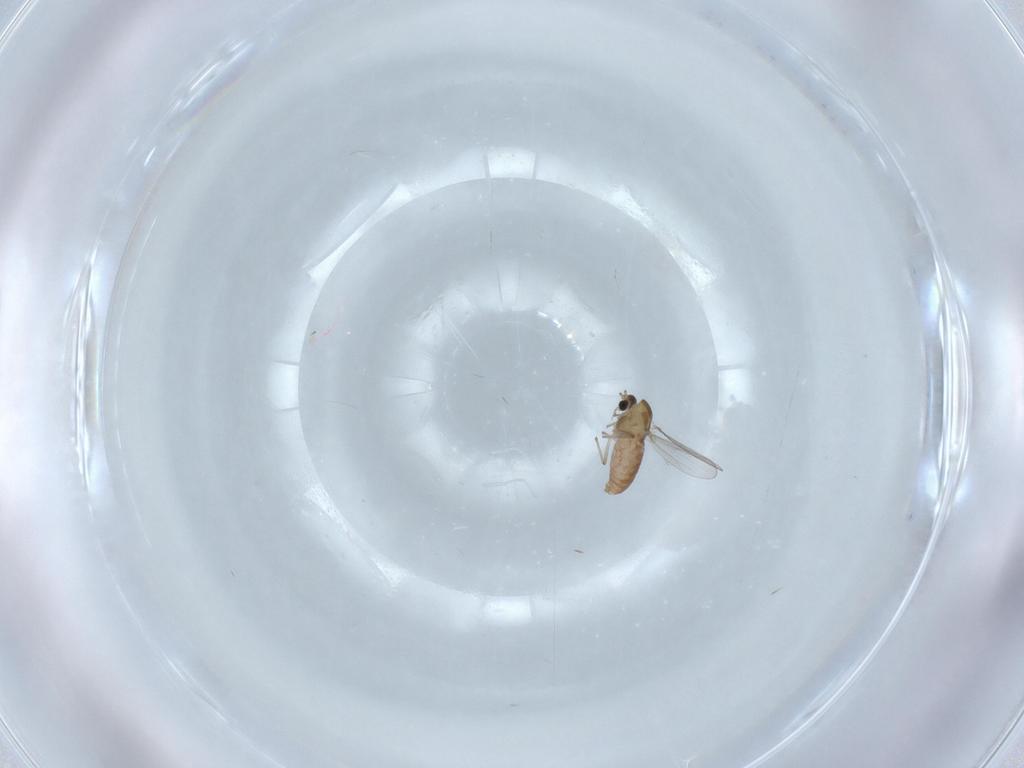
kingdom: Animalia
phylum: Arthropoda
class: Insecta
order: Diptera
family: Chironomidae
